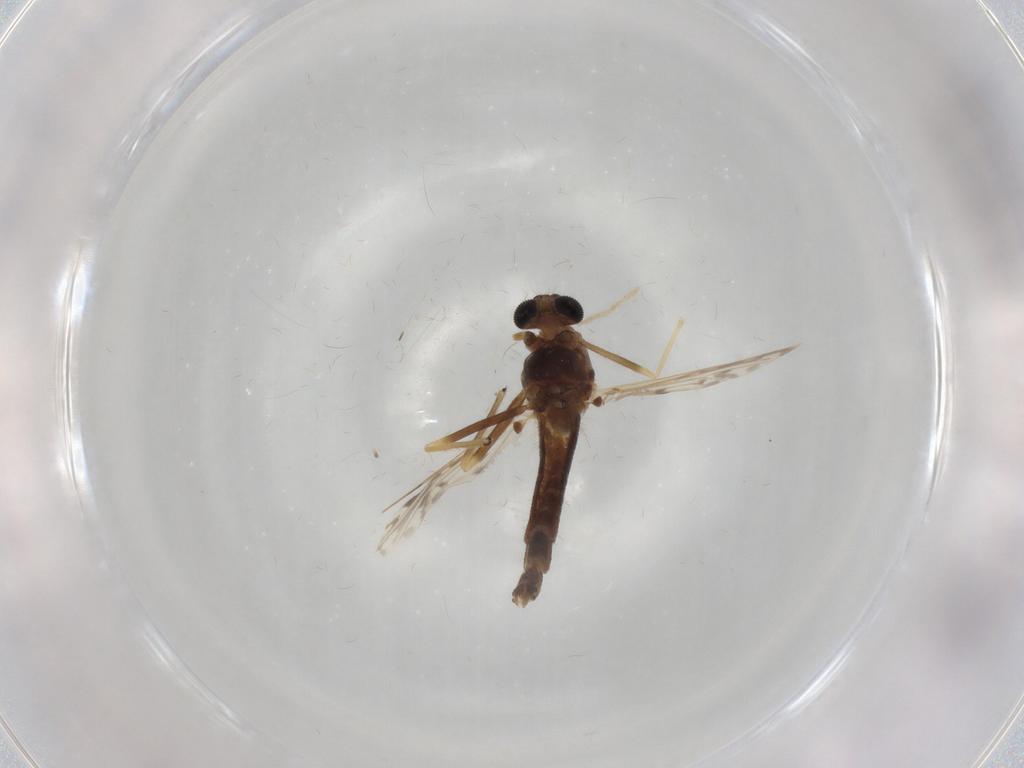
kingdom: Animalia
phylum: Arthropoda
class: Insecta
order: Diptera
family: Chironomidae
